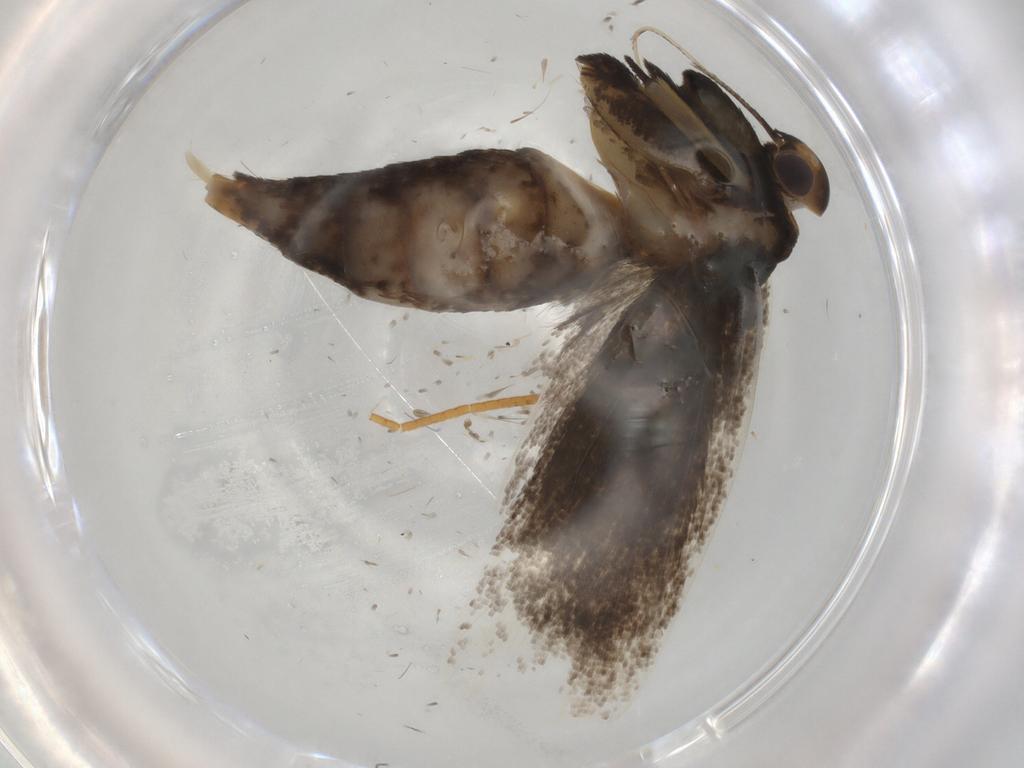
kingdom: Animalia
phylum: Arthropoda
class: Insecta
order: Lepidoptera
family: Lecithoceridae
